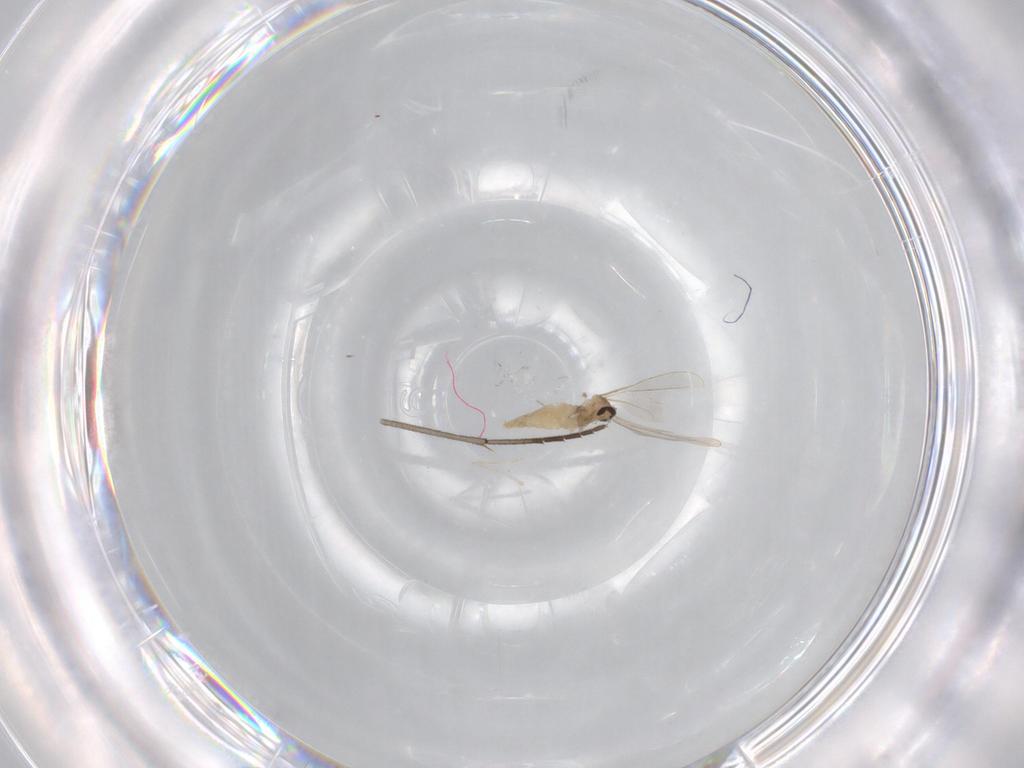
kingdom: Animalia
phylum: Arthropoda
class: Insecta
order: Diptera
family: Cecidomyiidae
